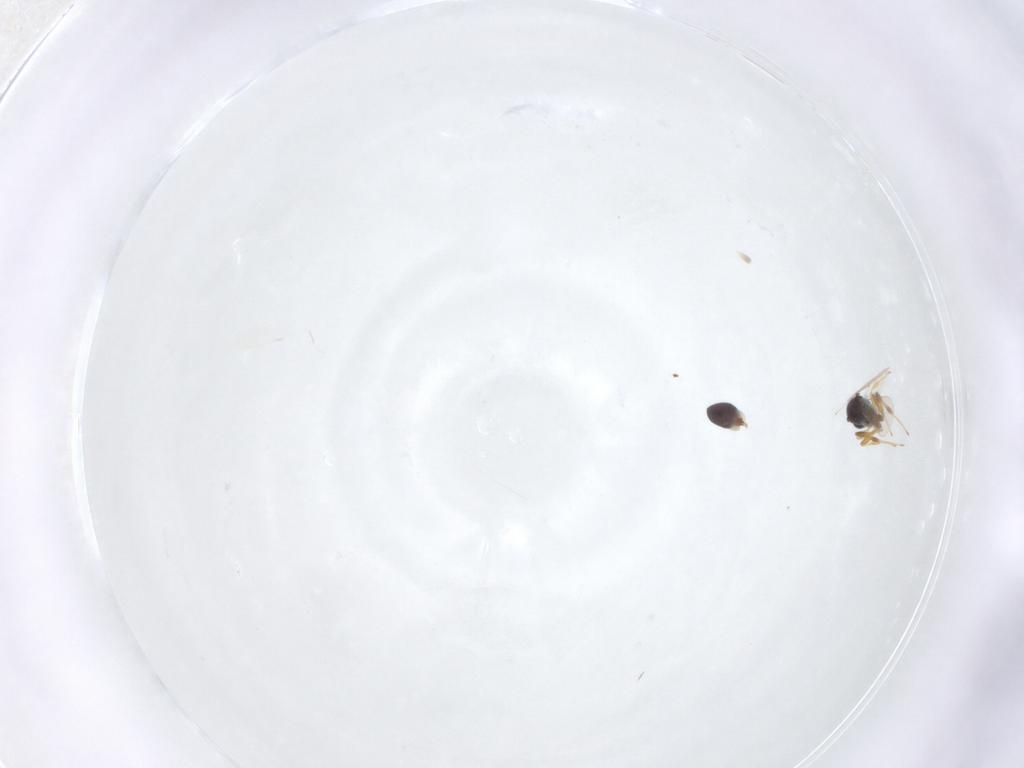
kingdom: Animalia
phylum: Arthropoda
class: Insecta
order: Hymenoptera
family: Platygastridae
